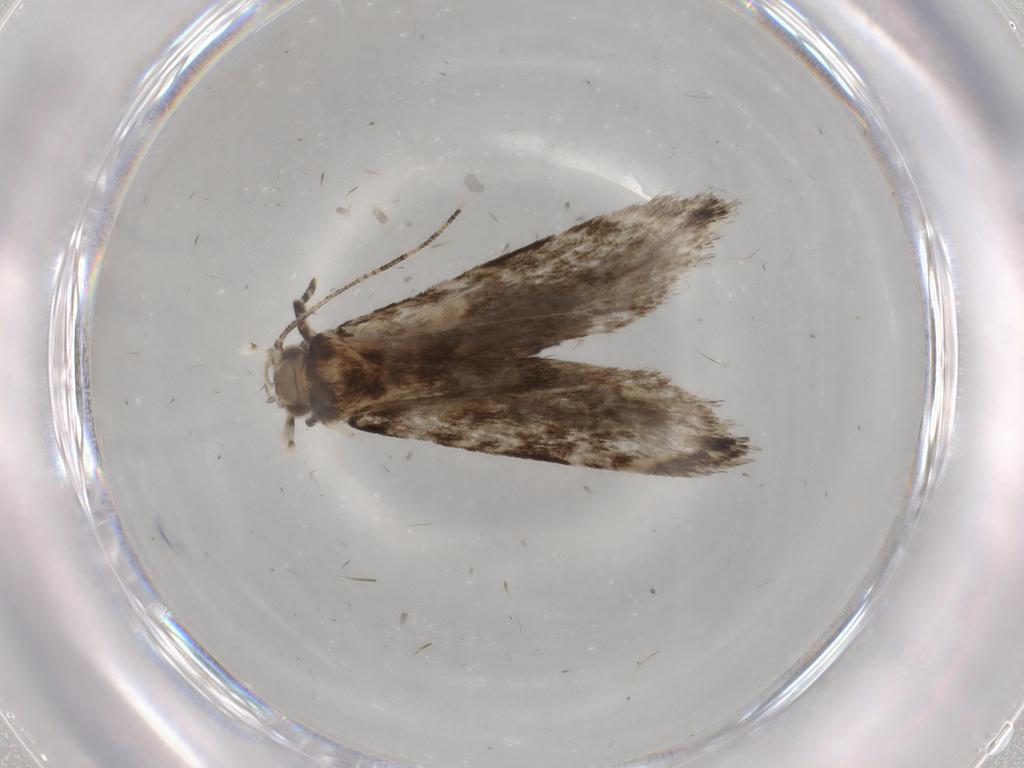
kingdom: Animalia
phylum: Arthropoda
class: Insecta
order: Lepidoptera
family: Tineidae
